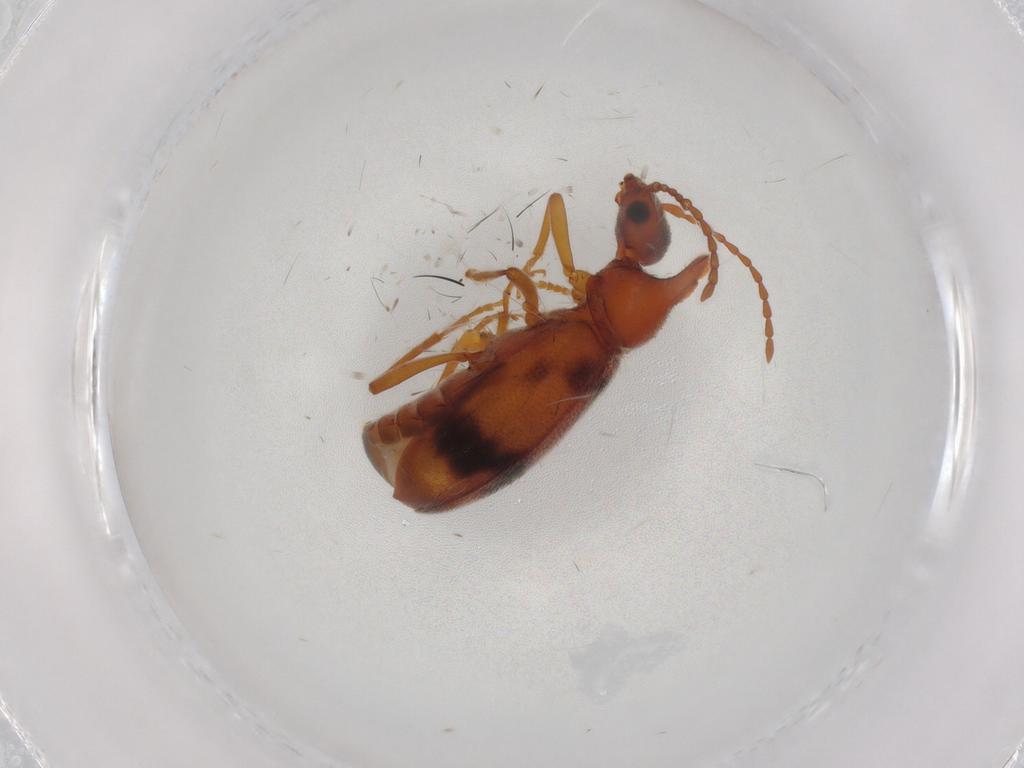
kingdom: Animalia
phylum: Arthropoda
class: Insecta
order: Coleoptera
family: Anthicidae
